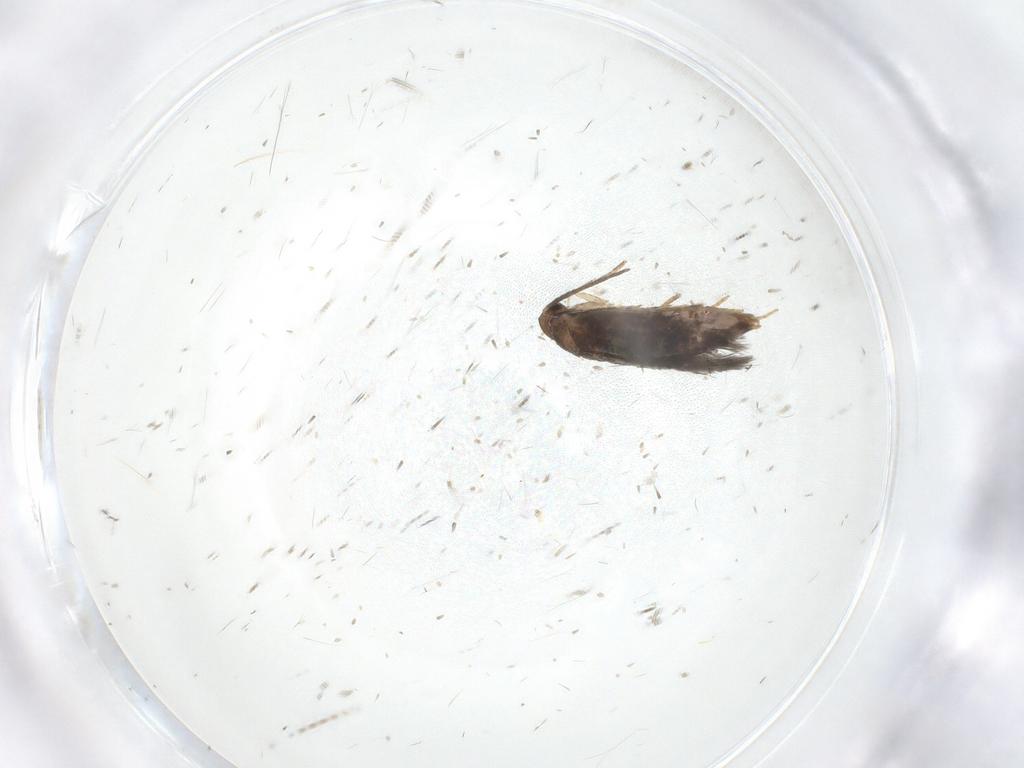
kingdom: Animalia
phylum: Arthropoda
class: Insecta
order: Lepidoptera
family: Heliozelidae
